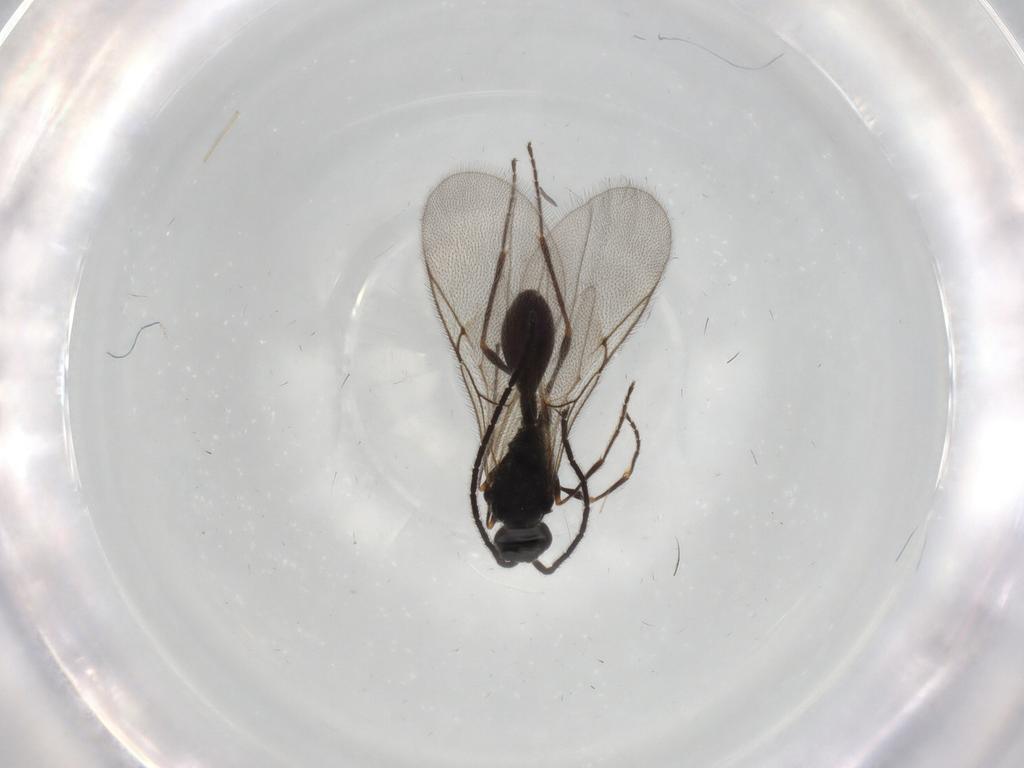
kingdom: Animalia
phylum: Arthropoda
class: Insecta
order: Hymenoptera
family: Diapriidae
